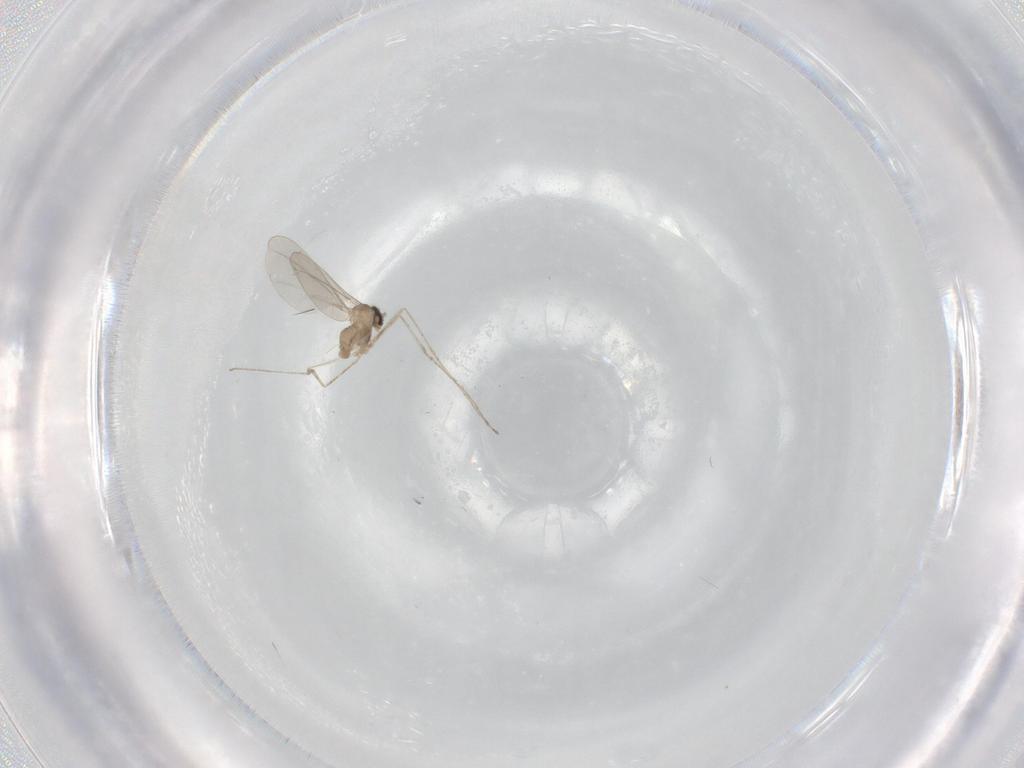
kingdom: Animalia
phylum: Arthropoda
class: Insecta
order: Diptera
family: Cecidomyiidae
